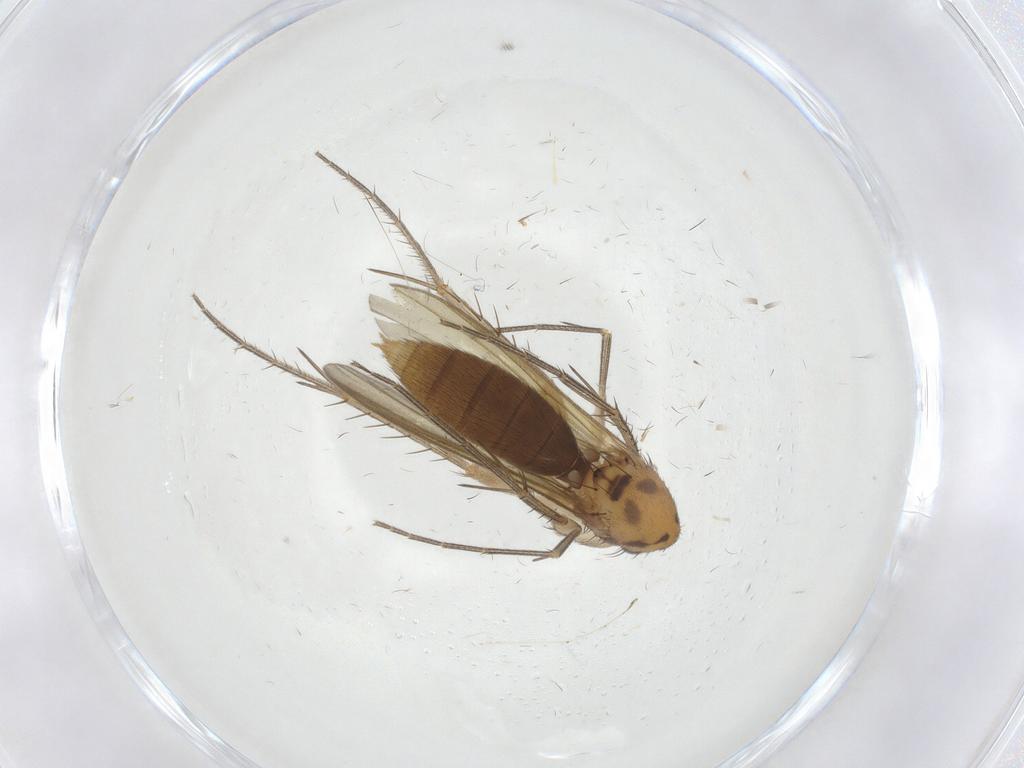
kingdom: Animalia
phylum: Arthropoda
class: Insecta
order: Diptera
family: Mycetophilidae
